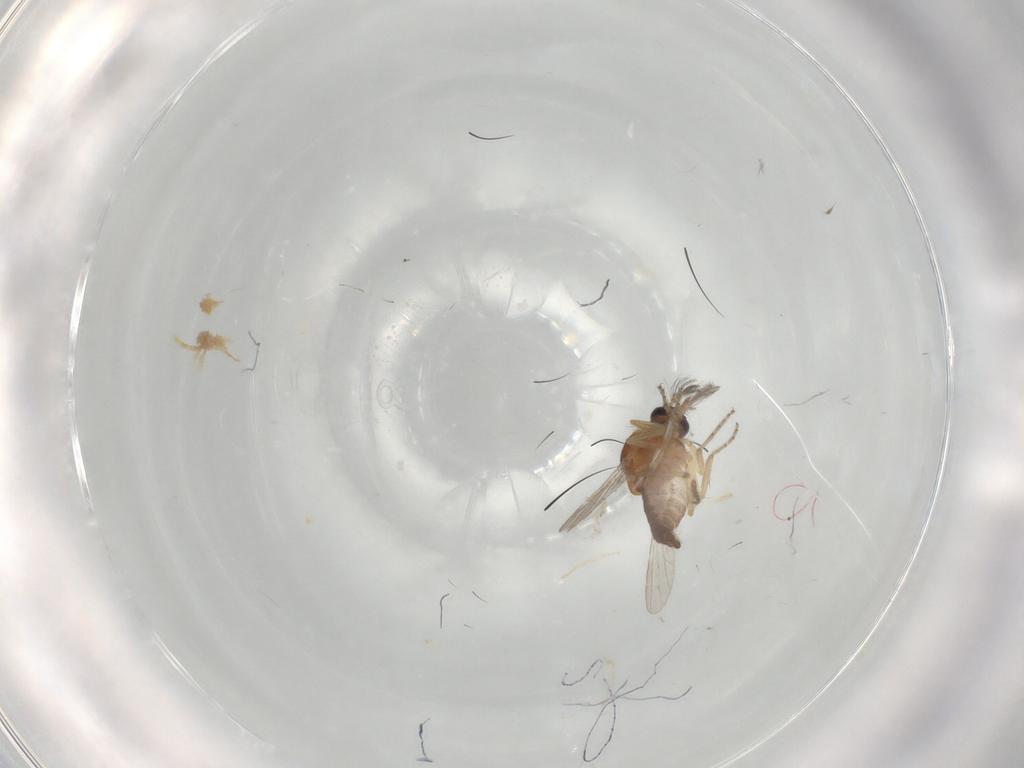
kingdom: Animalia
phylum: Arthropoda
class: Insecta
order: Diptera
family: Ceratopogonidae
